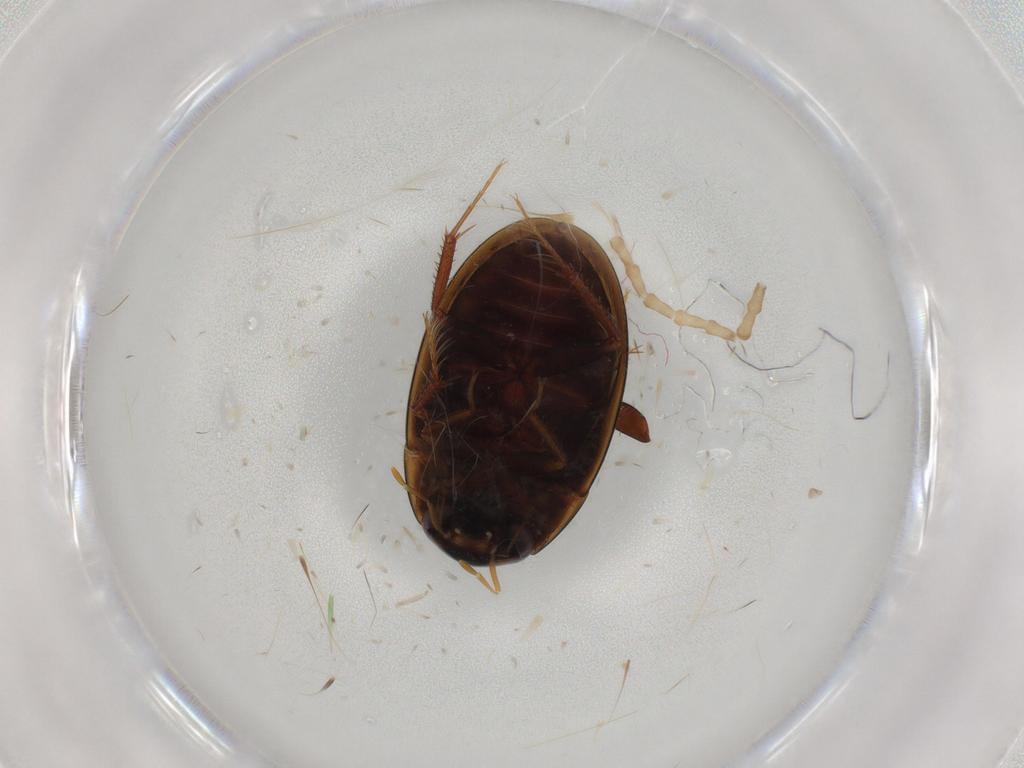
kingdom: Animalia
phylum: Arthropoda
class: Insecta
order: Coleoptera
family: Hydrophilidae
